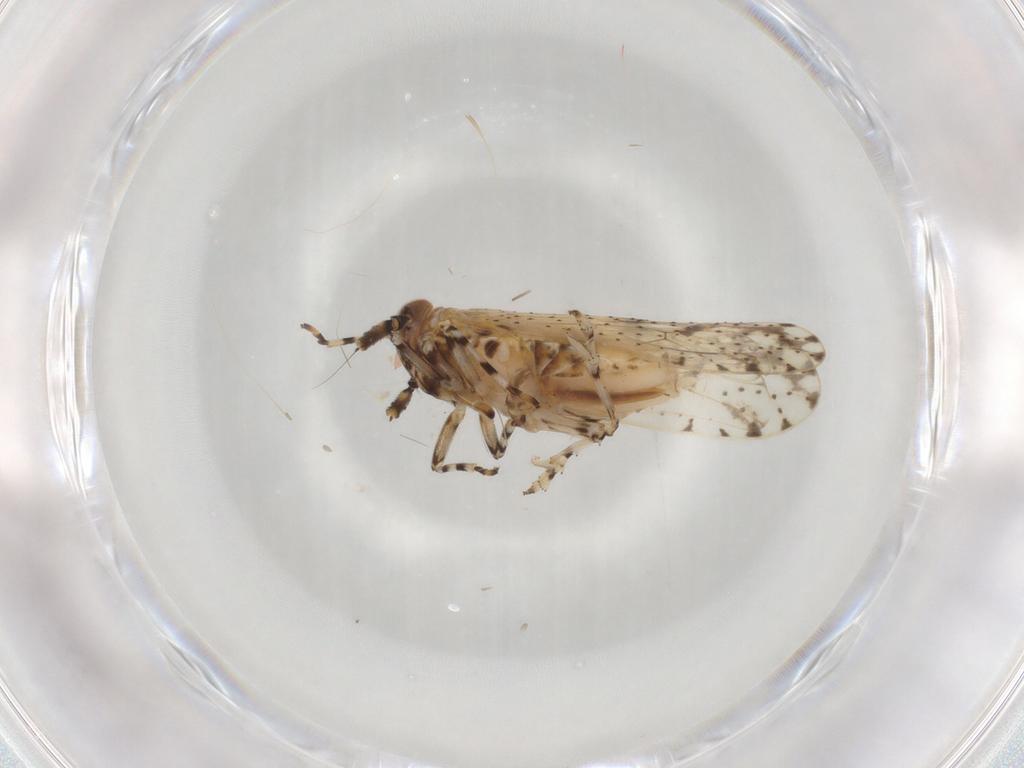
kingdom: Animalia
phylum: Arthropoda
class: Insecta
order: Hemiptera
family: Delphacidae
